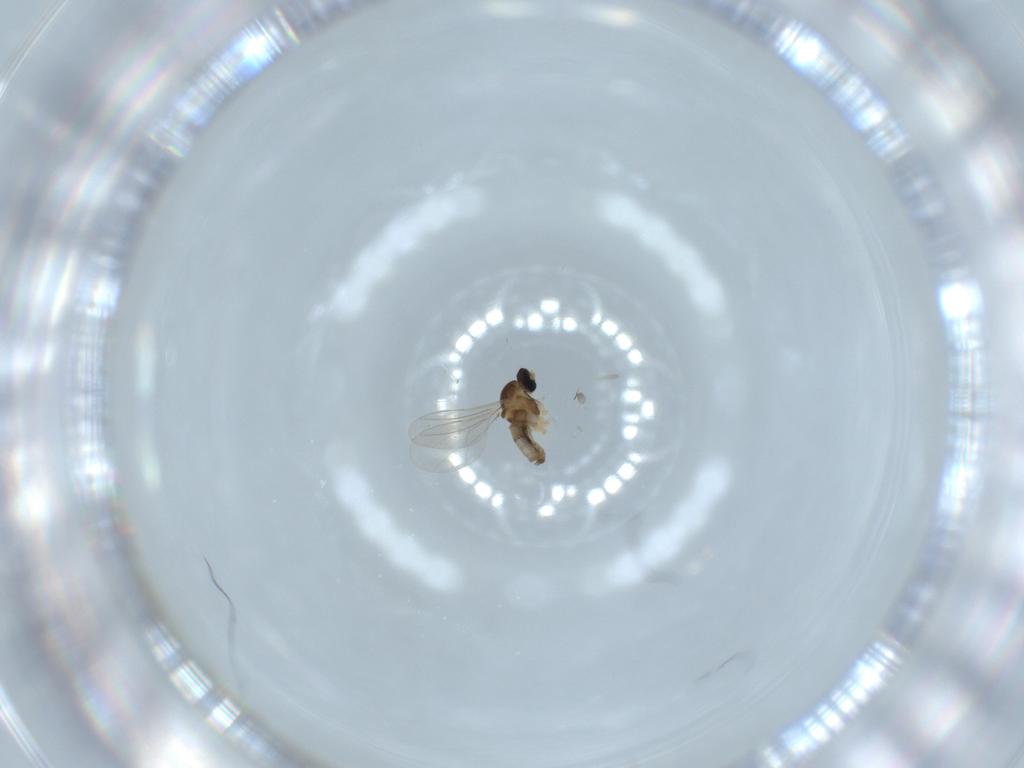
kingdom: Animalia
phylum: Arthropoda
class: Insecta
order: Diptera
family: Cecidomyiidae
